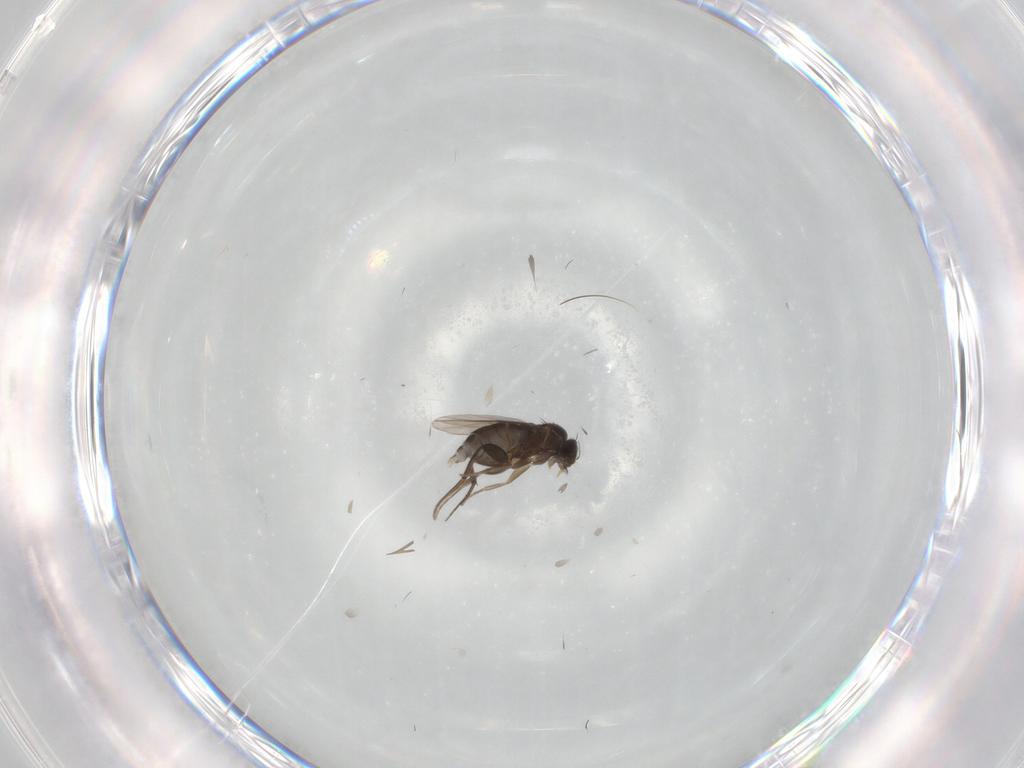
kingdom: Animalia
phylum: Arthropoda
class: Insecta
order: Diptera
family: Phoridae
